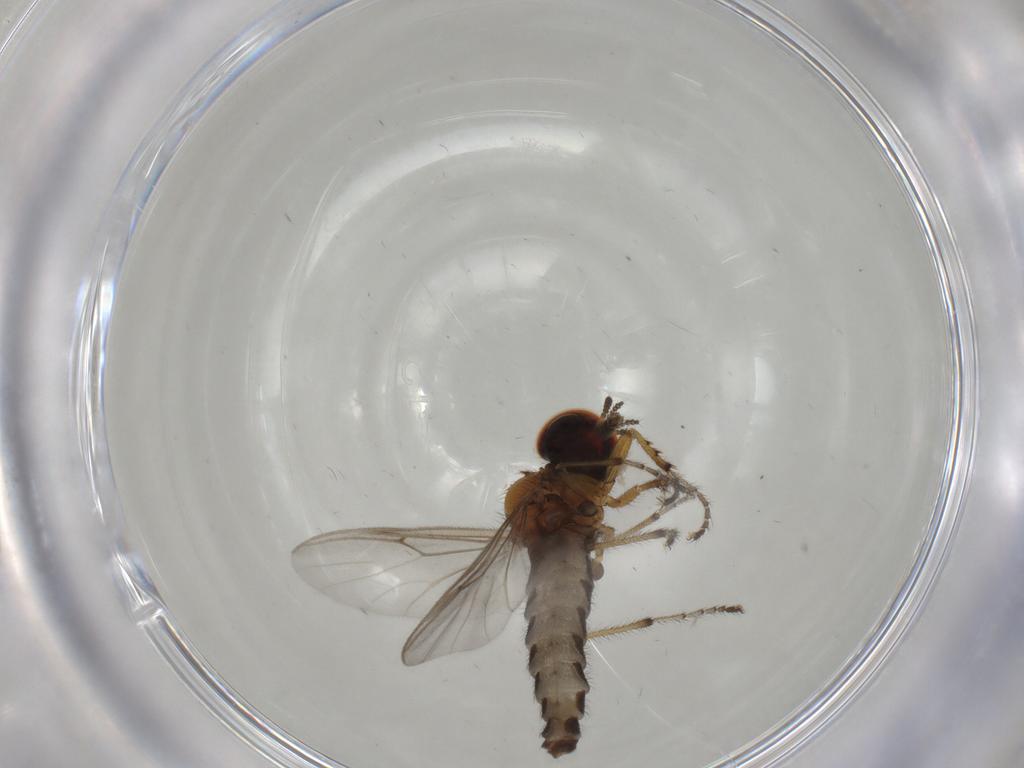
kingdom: Animalia
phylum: Arthropoda
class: Insecta
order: Diptera
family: Bibionidae
